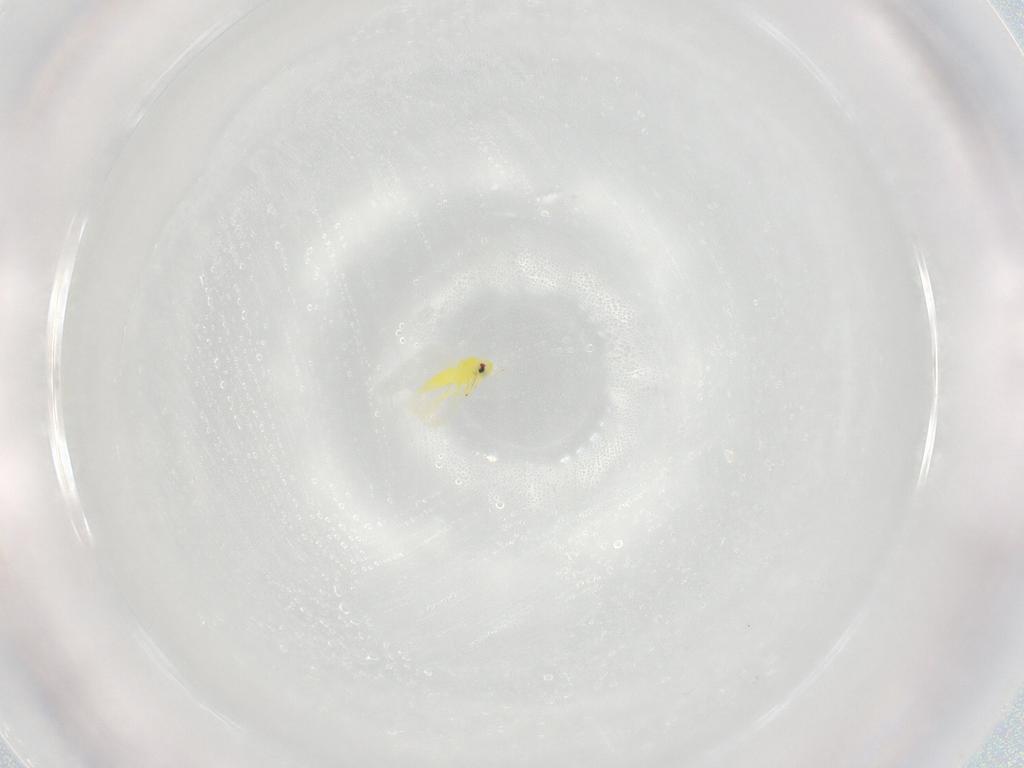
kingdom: Animalia
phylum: Arthropoda
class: Insecta
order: Hemiptera
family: Aleyrodidae
